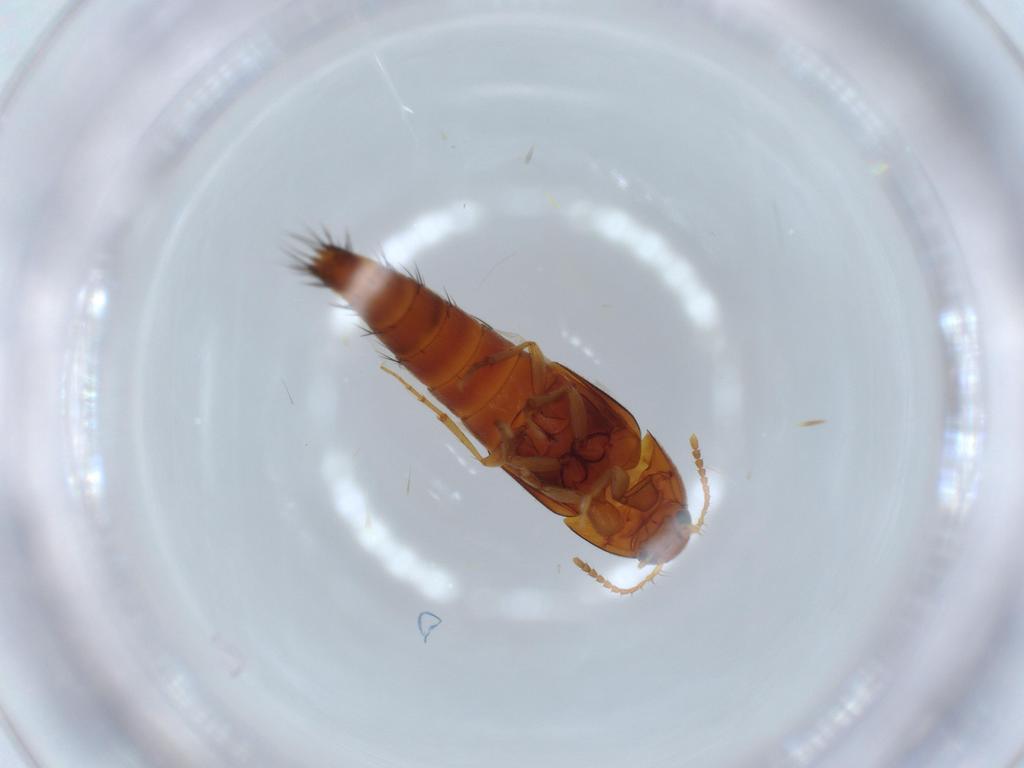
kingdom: Animalia
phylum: Arthropoda
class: Insecta
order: Coleoptera
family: Staphylinidae
